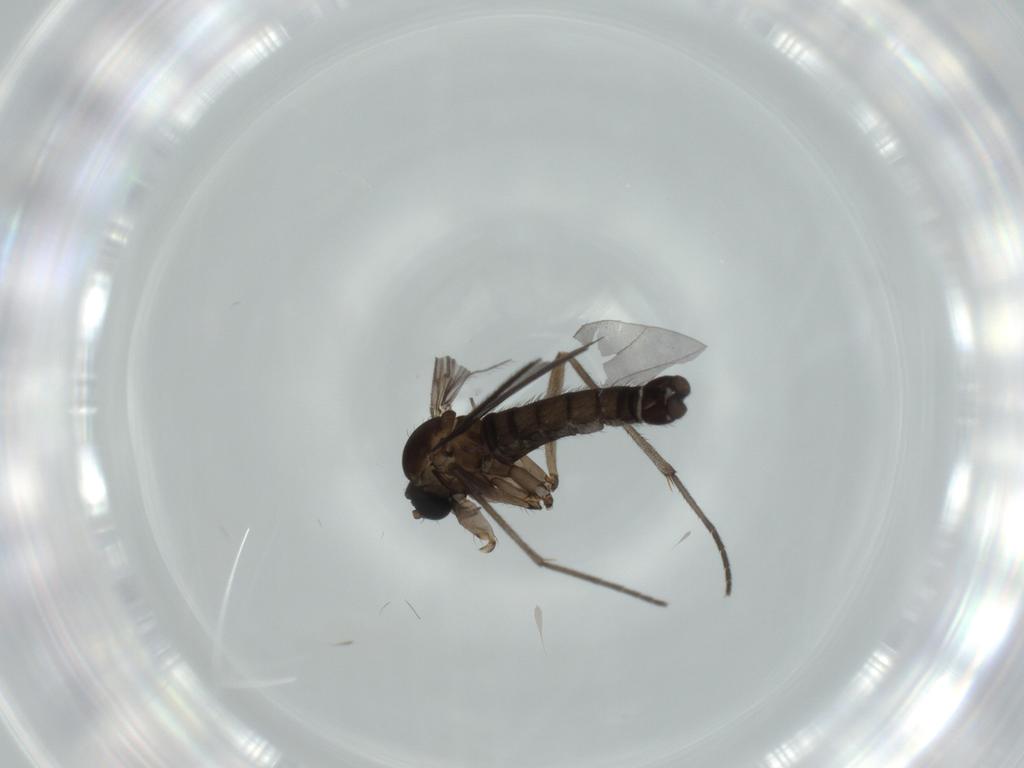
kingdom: Animalia
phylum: Arthropoda
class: Insecta
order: Diptera
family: Sciaridae
